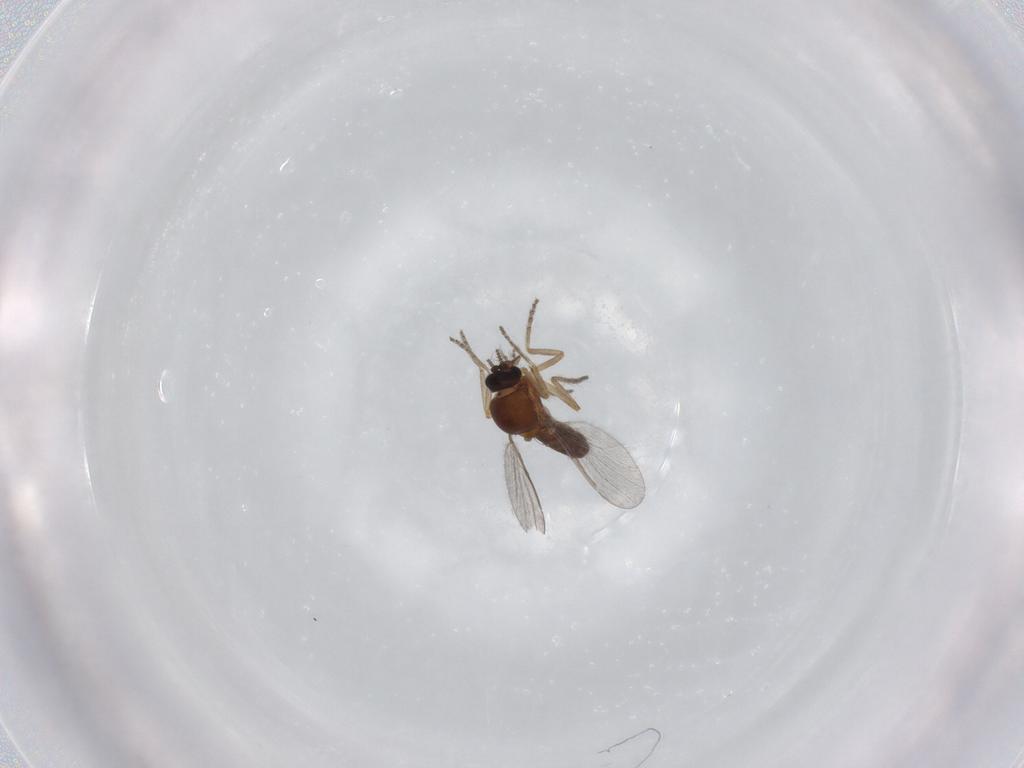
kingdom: Animalia
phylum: Arthropoda
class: Insecta
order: Diptera
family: Ceratopogonidae
